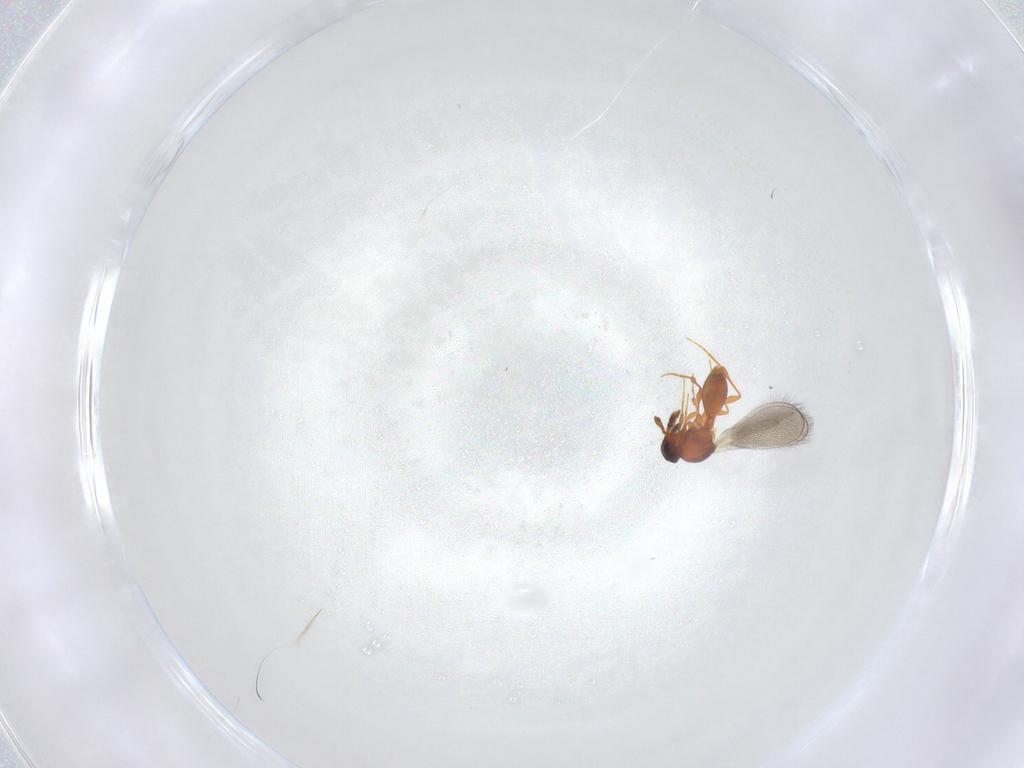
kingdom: Animalia
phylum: Arthropoda
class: Insecta
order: Hymenoptera
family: Platygastridae
